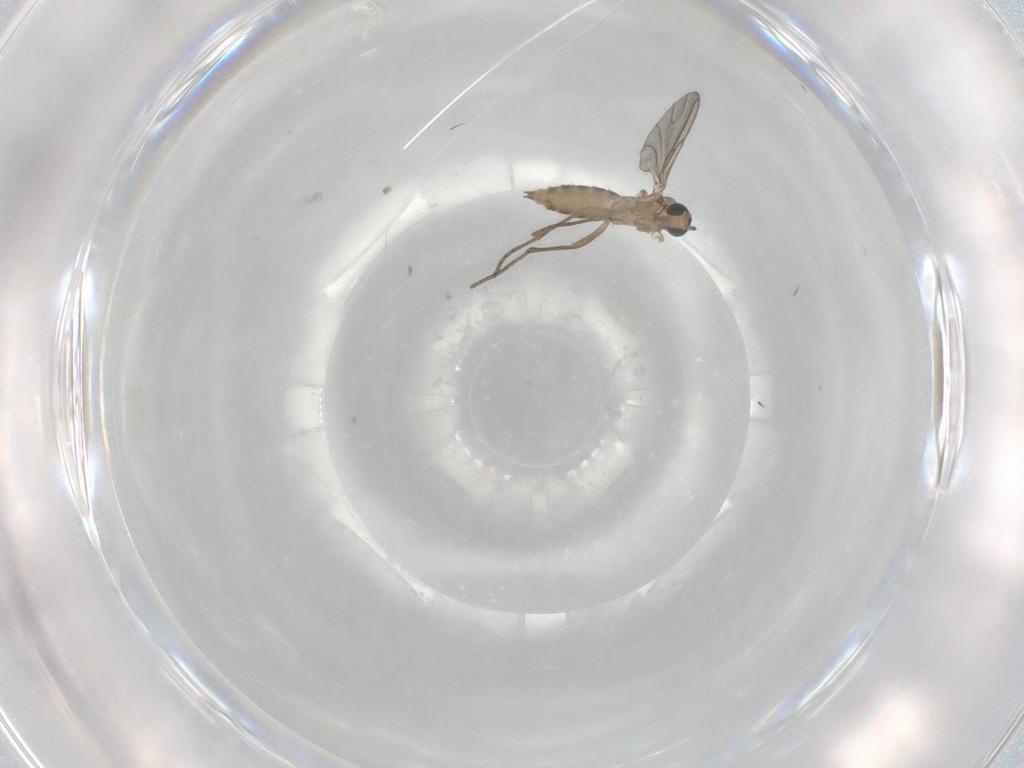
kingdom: Animalia
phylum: Arthropoda
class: Insecta
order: Diptera
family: Sciaridae
